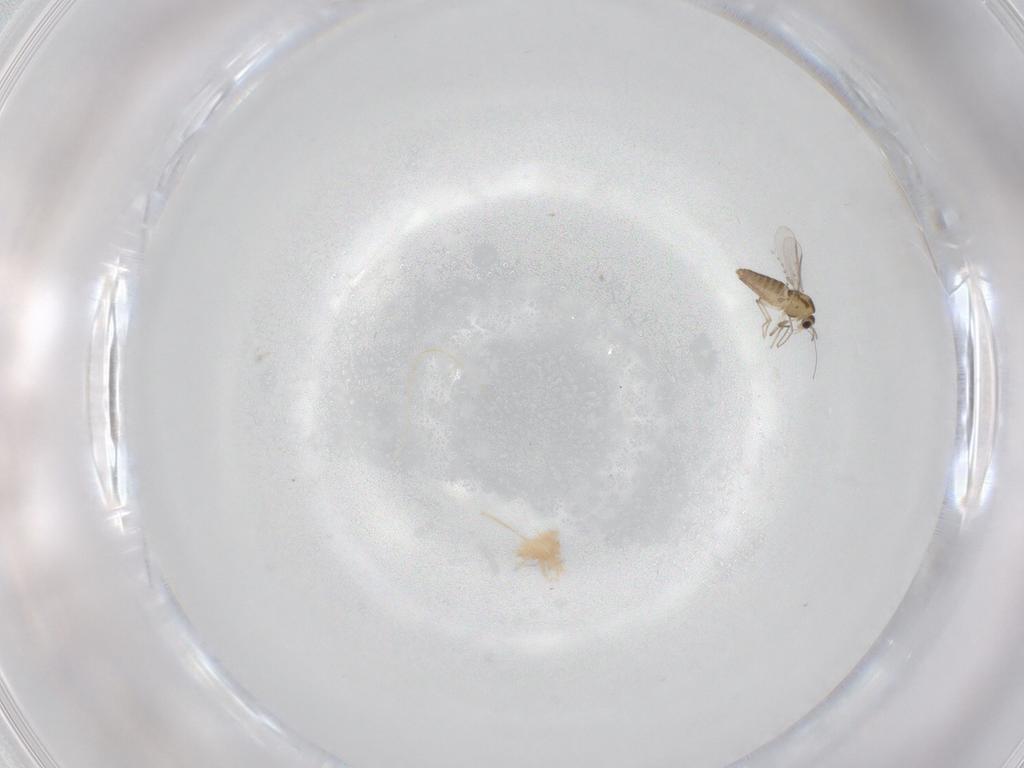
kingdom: Animalia
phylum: Arthropoda
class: Insecta
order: Diptera
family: Chironomidae
